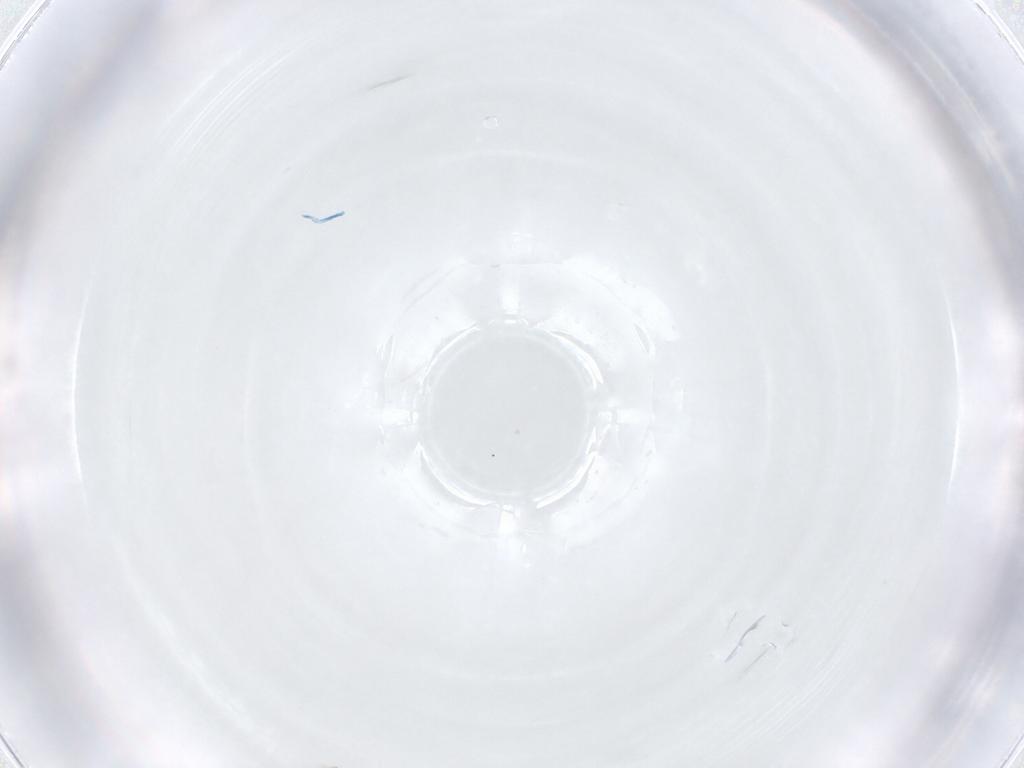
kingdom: Animalia
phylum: Arthropoda
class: Arachnida
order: Sarcoptiformes
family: Brachychthoniidae
